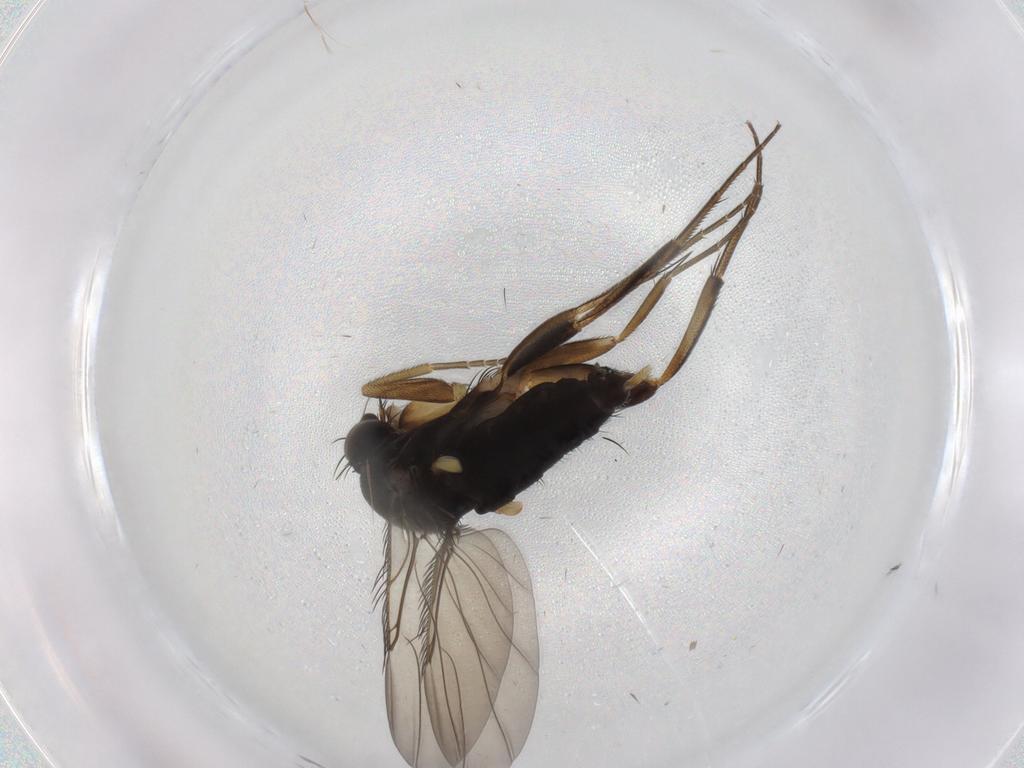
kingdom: Animalia
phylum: Arthropoda
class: Insecta
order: Diptera
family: Phoridae
